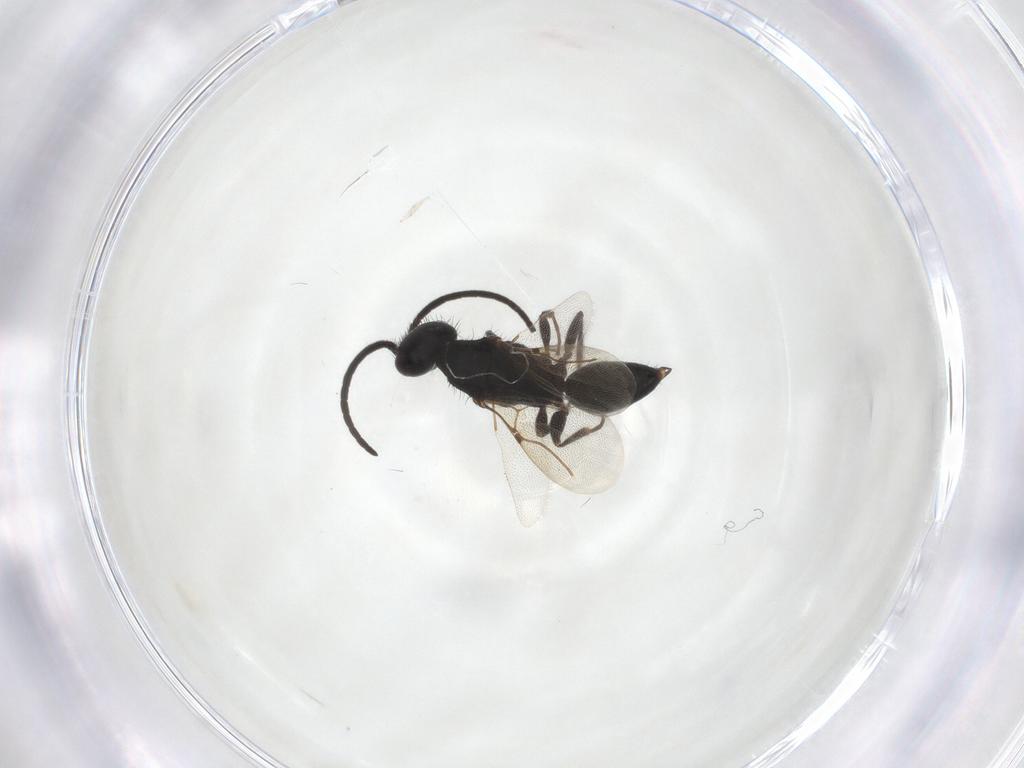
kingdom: Animalia
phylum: Arthropoda
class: Insecta
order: Hymenoptera
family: Bethylidae
